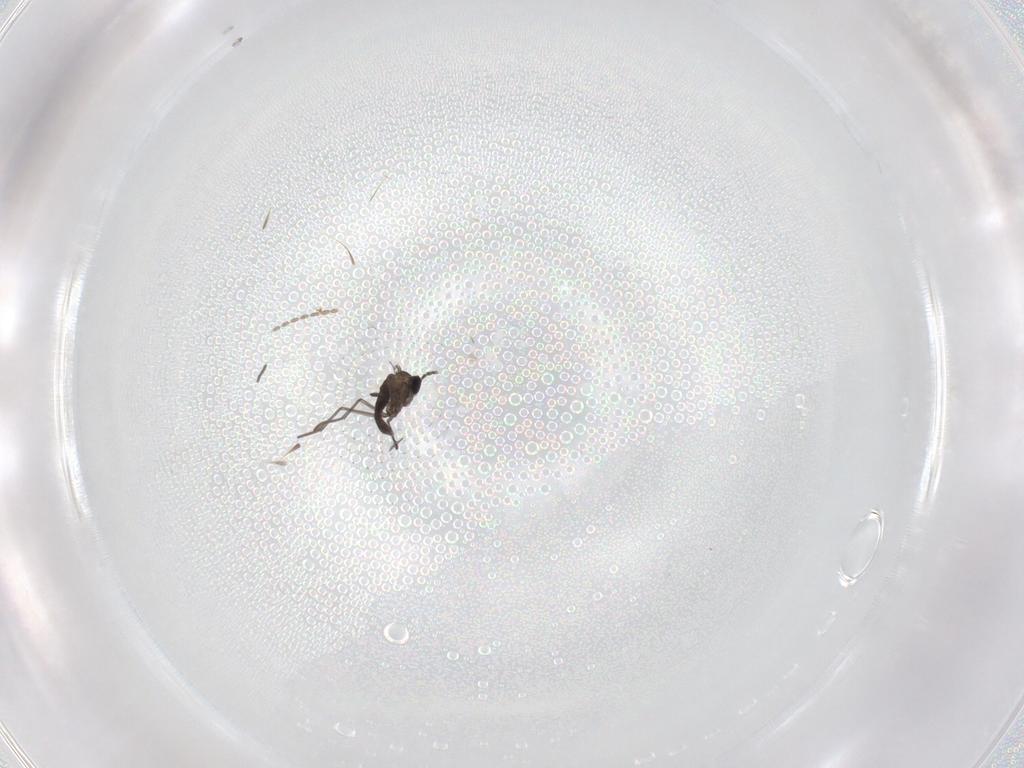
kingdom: Animalia
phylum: Arthropoda
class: Insecta
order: Diptera
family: Cecidomyiidae
